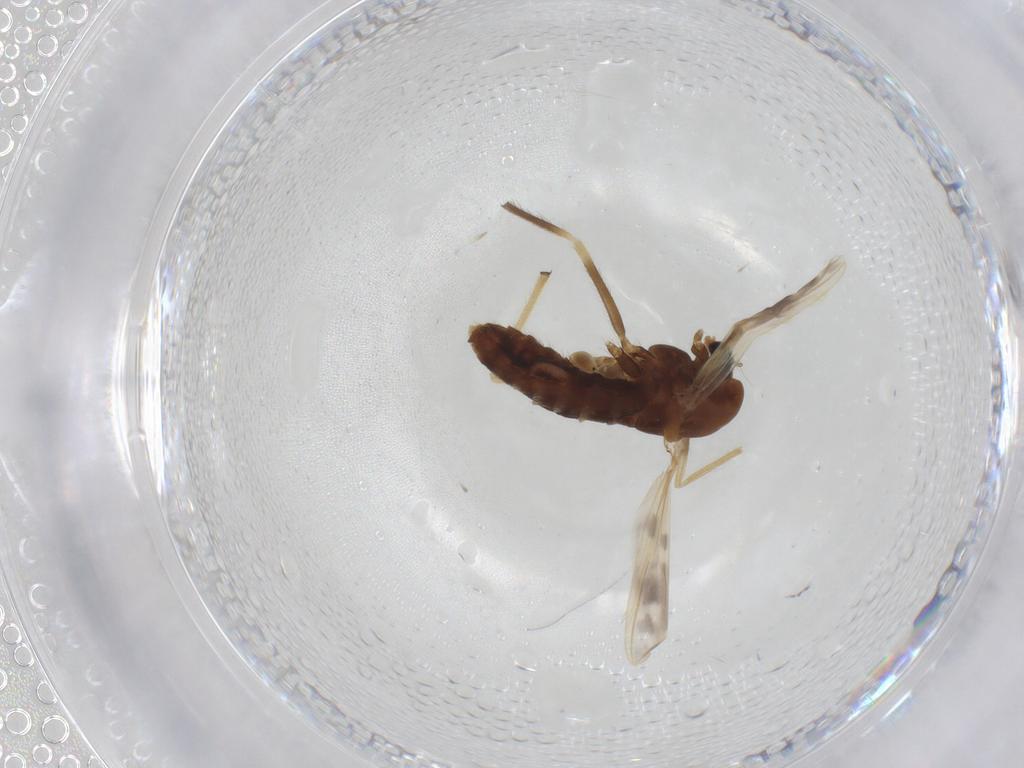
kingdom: Animalia
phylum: Arthropoda
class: Insecta
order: Diptera
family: Chironomidae
